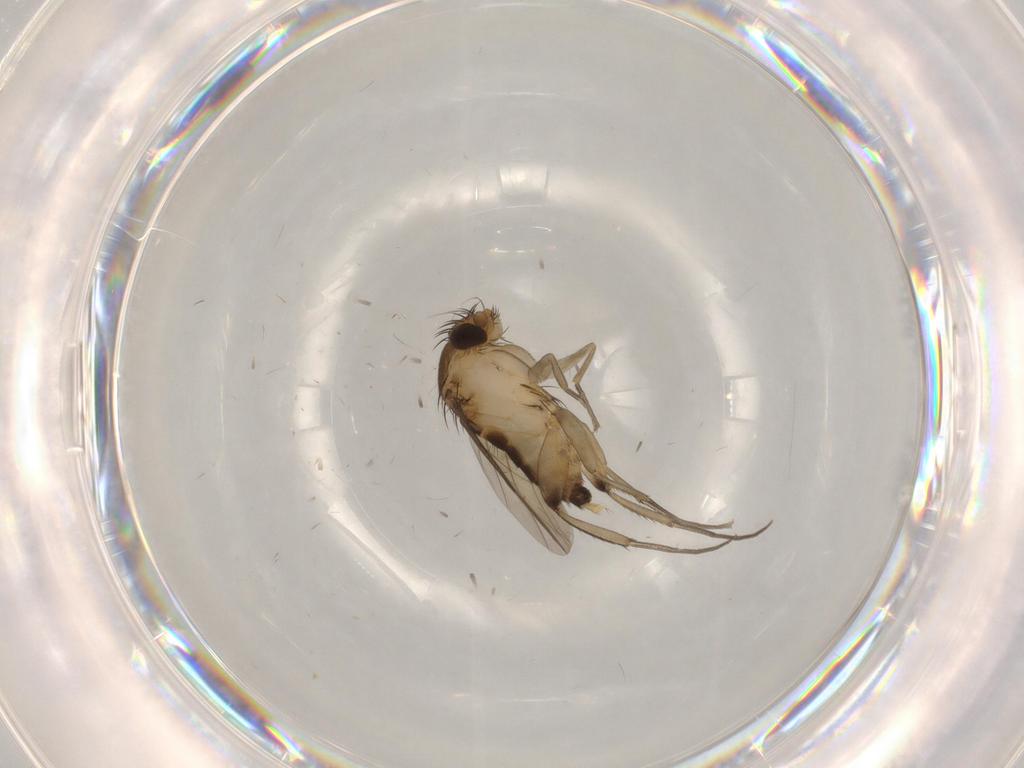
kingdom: Animalia
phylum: Arthropoda
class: Insecta
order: Diptera
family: Phoridae
